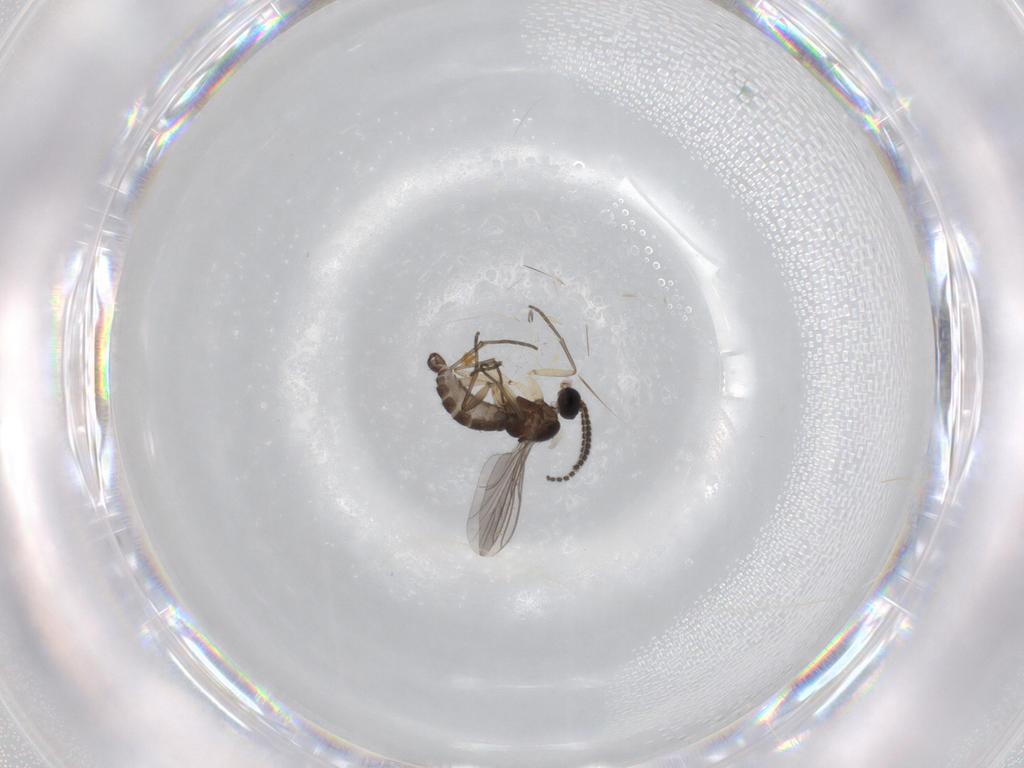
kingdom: Animalia
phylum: Arthropoda
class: Insecta
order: Diptera
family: Sciaridae
